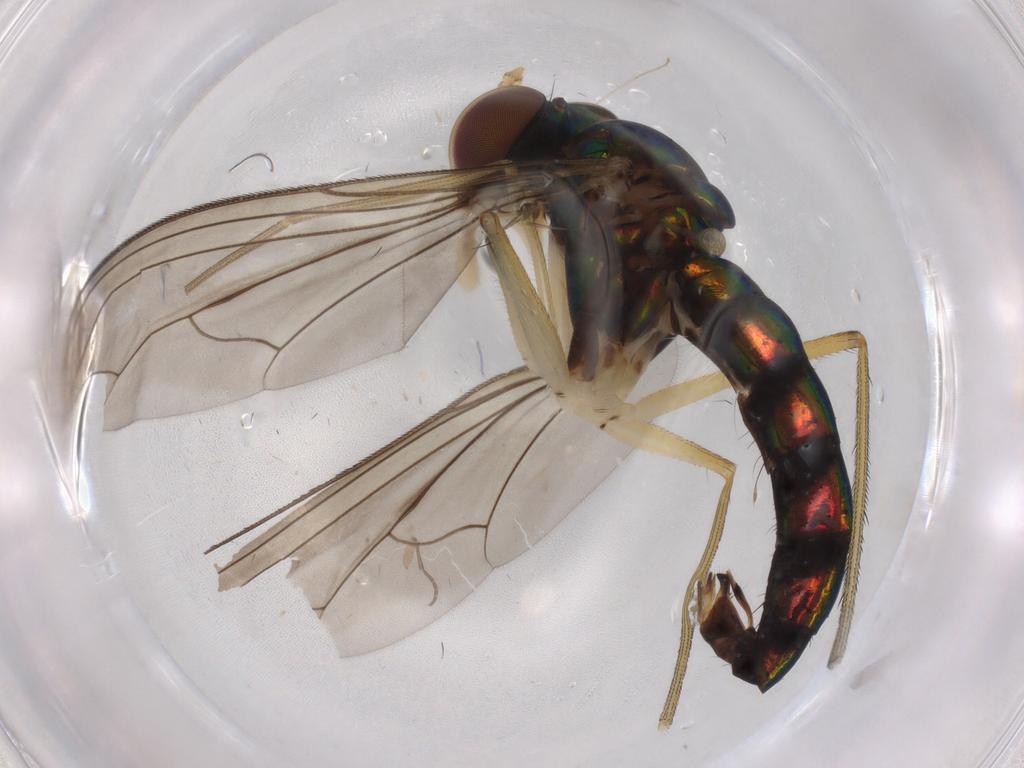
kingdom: Animalia
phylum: Arthropoda
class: Insecta
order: Diptera
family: Dolichopodidae
